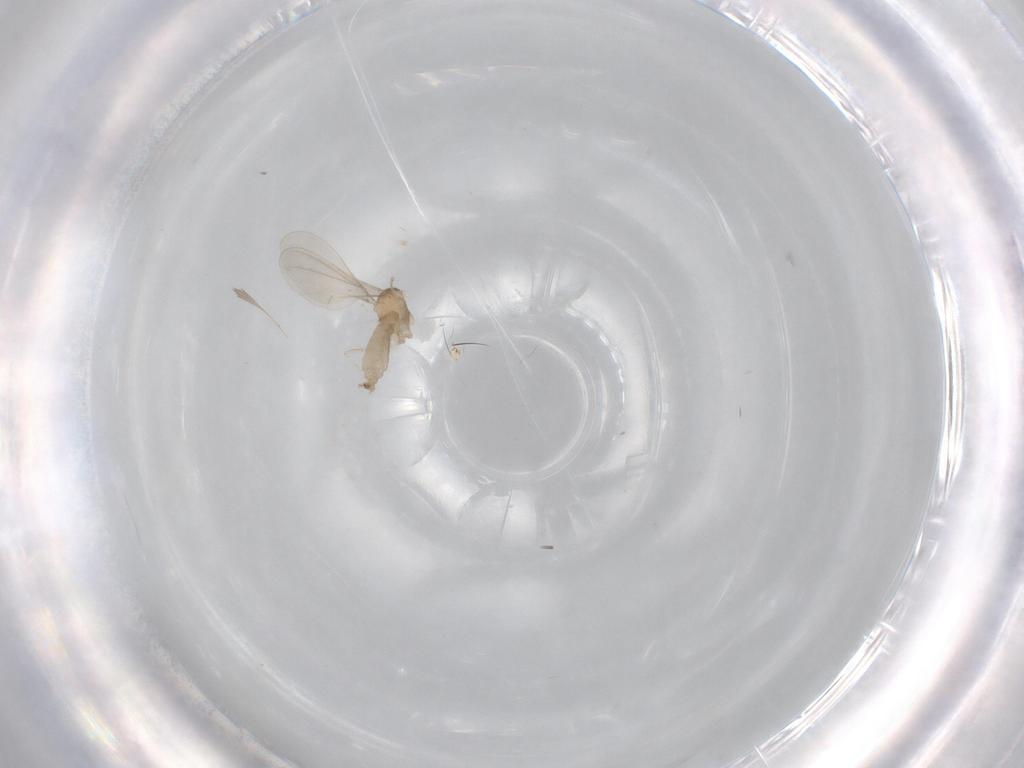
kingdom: Animalia
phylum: Arthropoda
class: Insecta
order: Diptera
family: Cecidomyiidae
